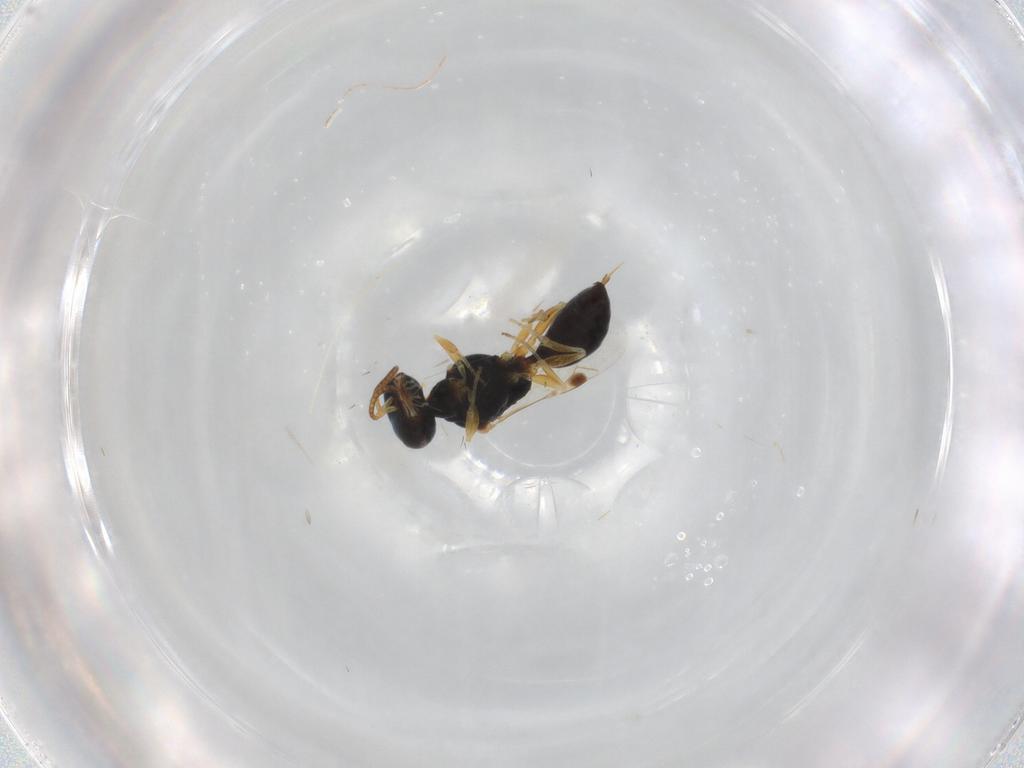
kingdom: Animalia
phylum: Arthropoda
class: Insecta
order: Hymenoptera
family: Pemphredonidae
